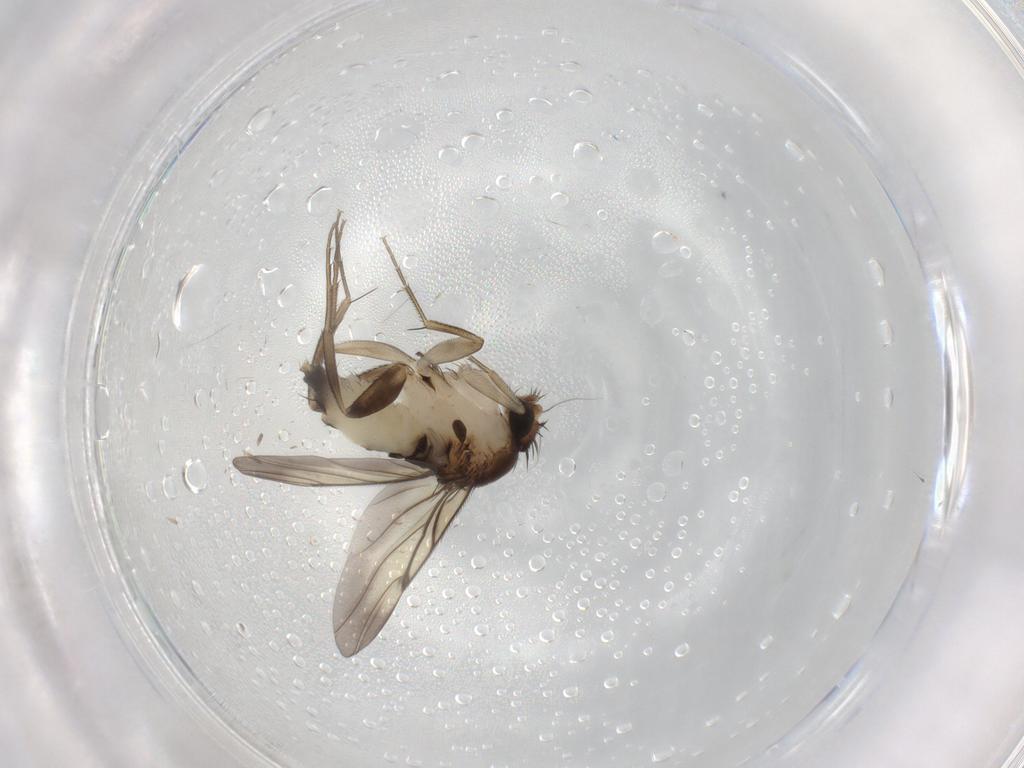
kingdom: Animalia
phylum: Arthropoda
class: Insecta
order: Diptera
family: Phoridae
